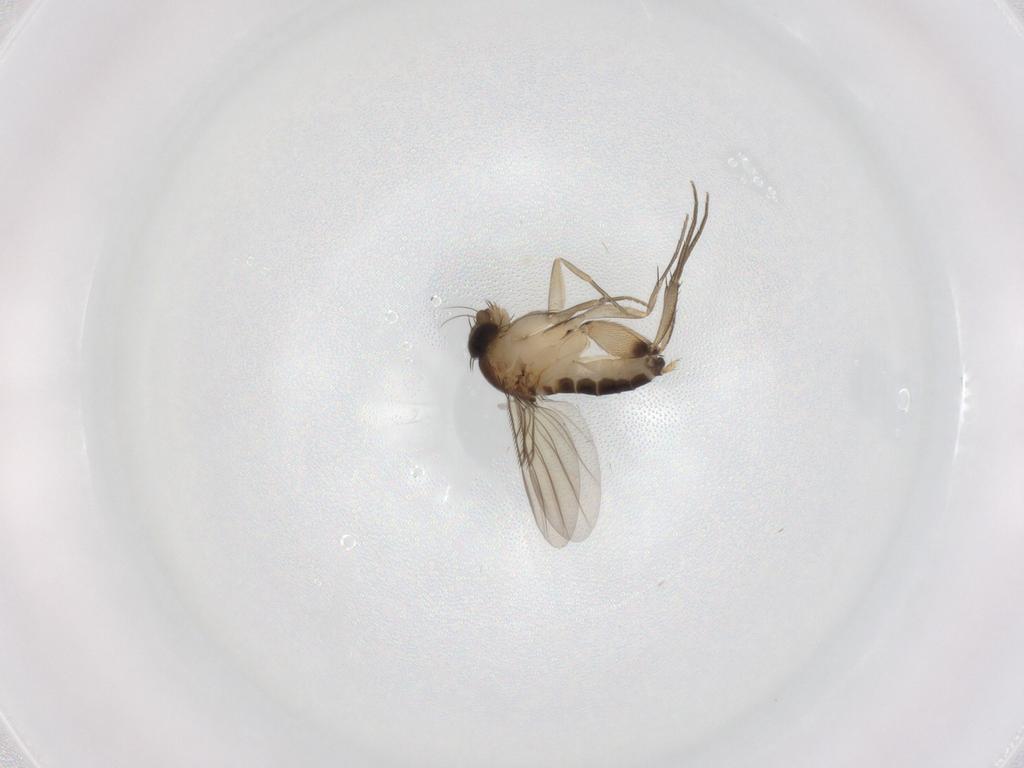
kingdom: Animalia
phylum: Arthropoda
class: Insecta
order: Diptera
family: Phoridae
